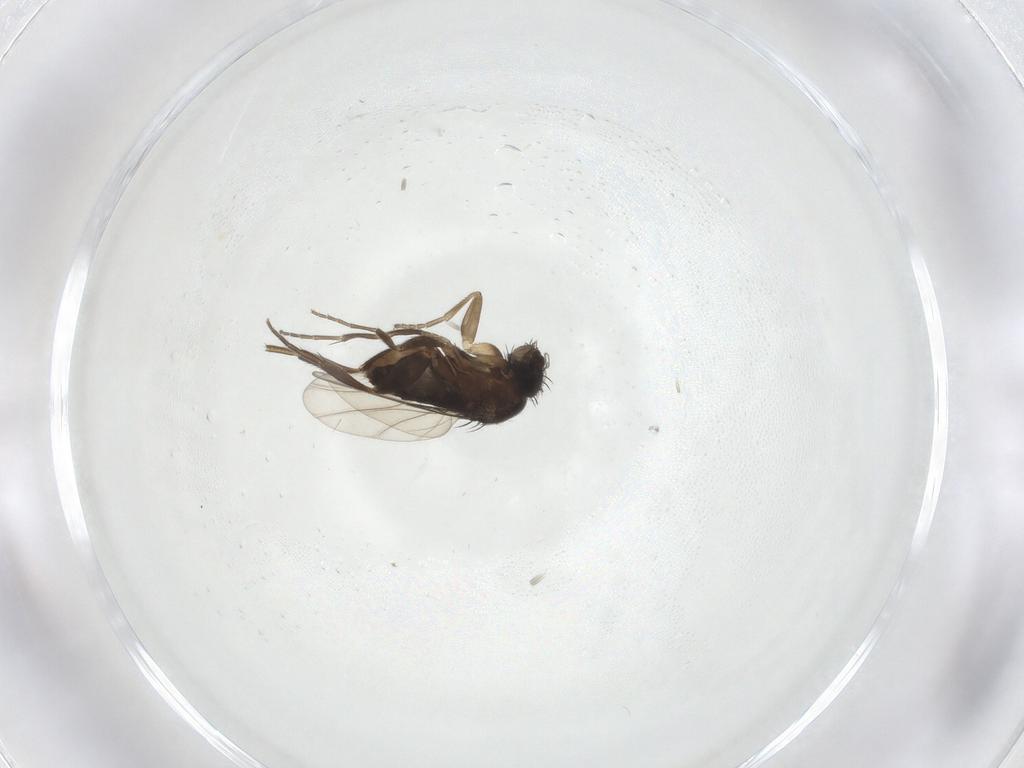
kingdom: Animalia
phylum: Arthropoda
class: Insecta
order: Diptera
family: Phoridae
